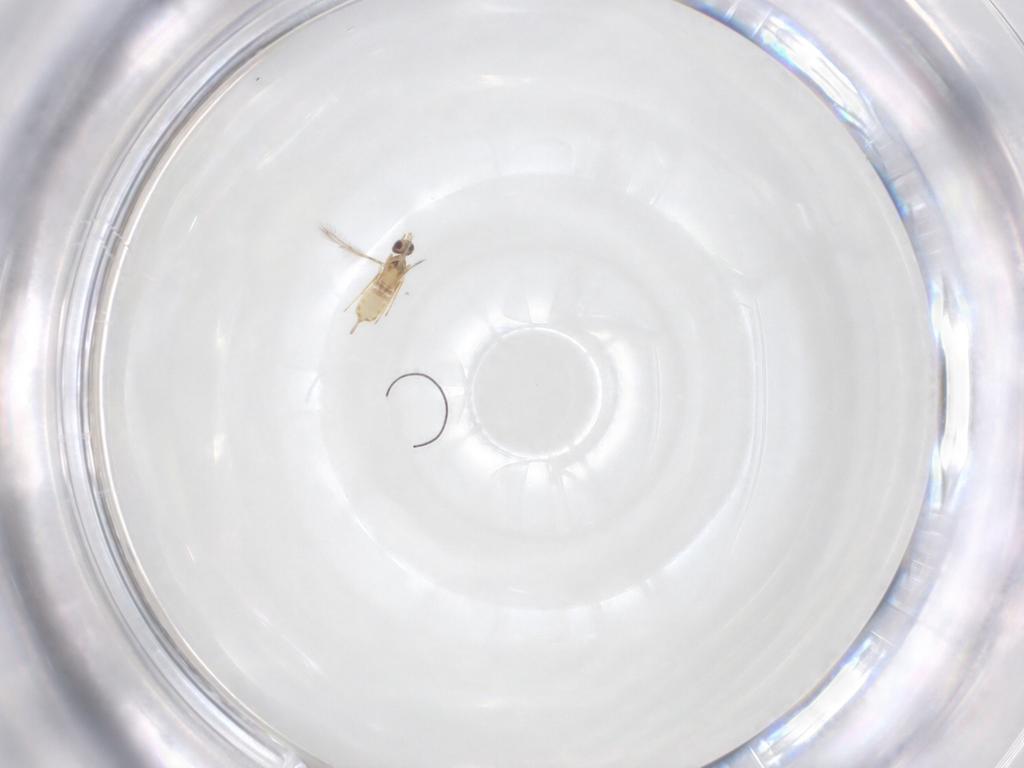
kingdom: Animalia
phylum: Arthropoda
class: Insecta
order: Hymenoptera
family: Mymaridae
